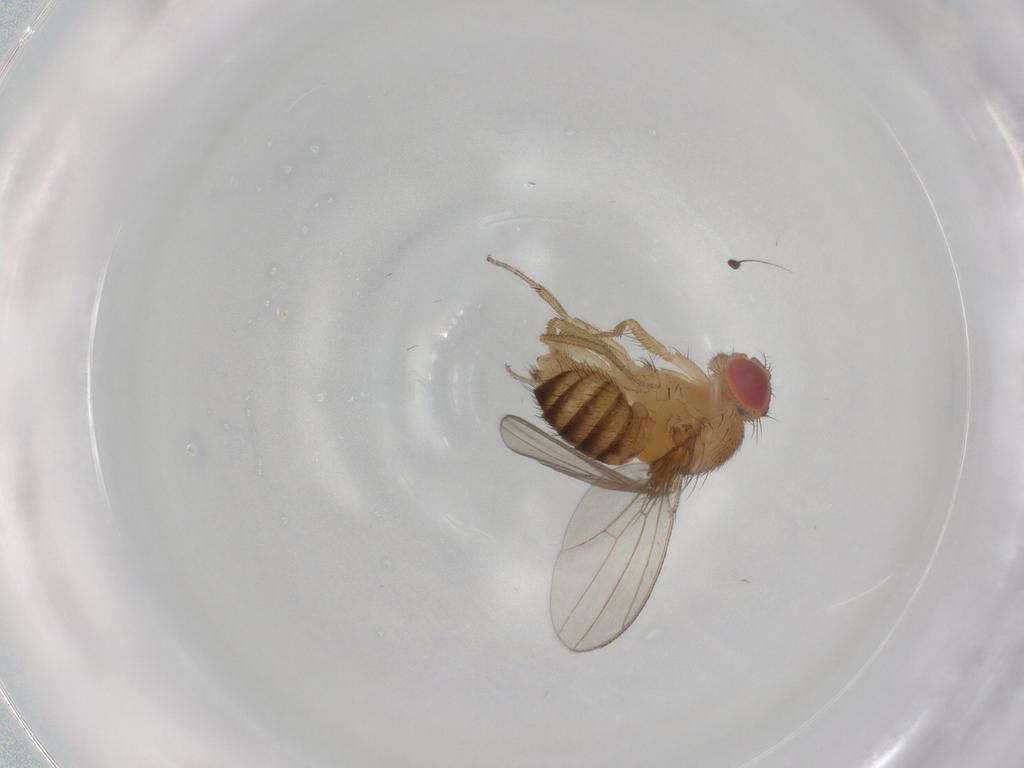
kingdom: Animalia
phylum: Arthropoda
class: Insecta
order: Diptera
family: Drosophilidae
